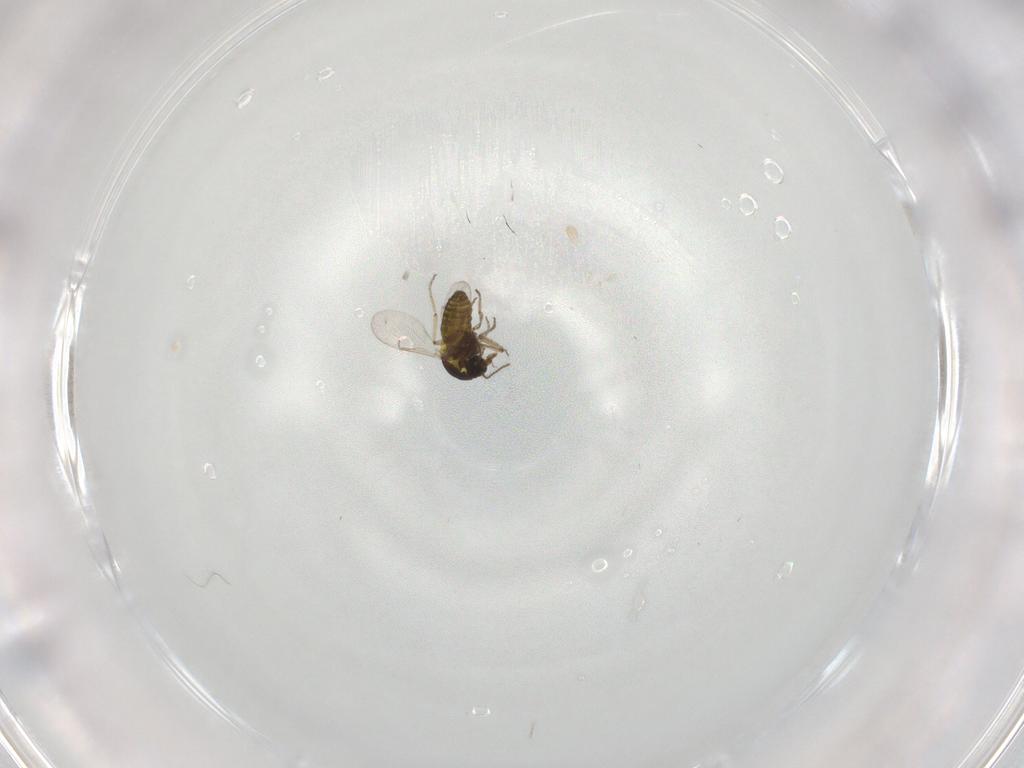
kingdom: Animalia
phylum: Arthropoda
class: Insecta
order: Diptera
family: Ceratopogonidae
